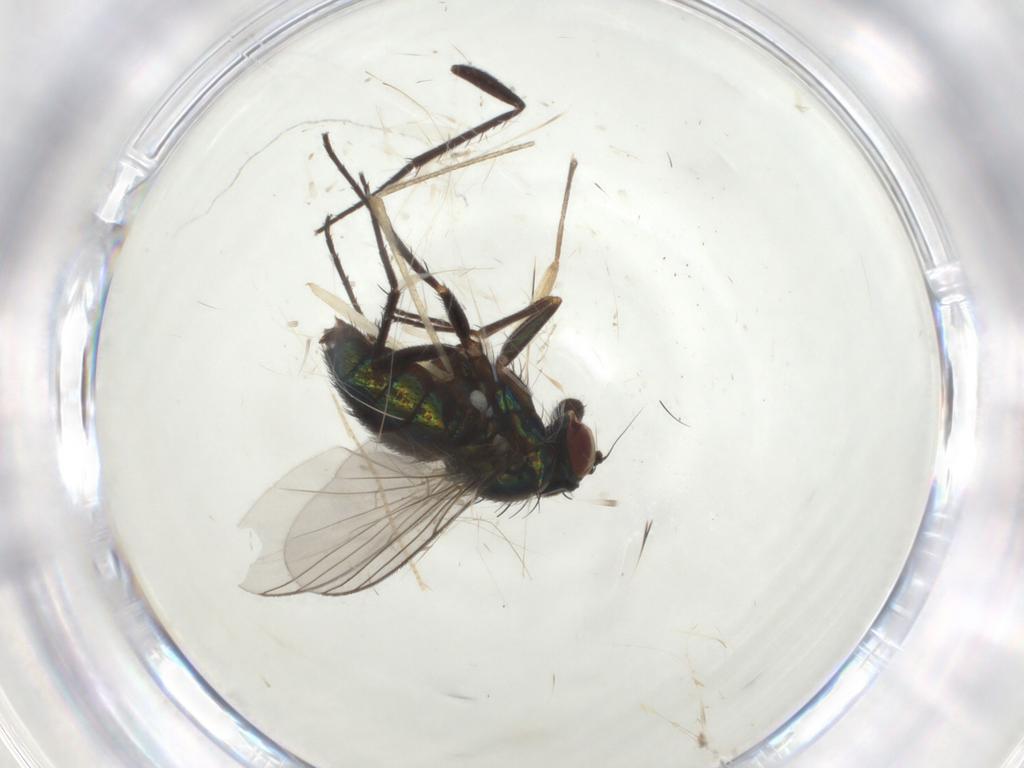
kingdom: Animalia
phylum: Arthropoda
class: Insecta
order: Diptera
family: Dolichopodidae
